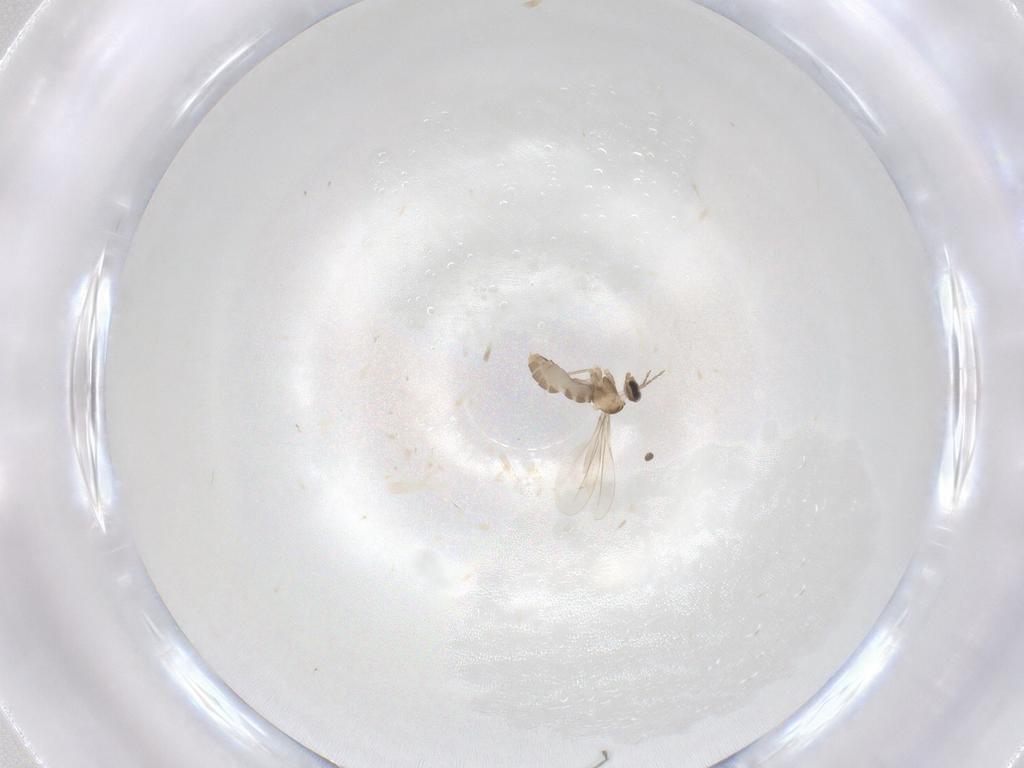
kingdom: Animalia
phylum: Arthropoda
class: Insecta
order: Diptera
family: Cecidomyiidae
